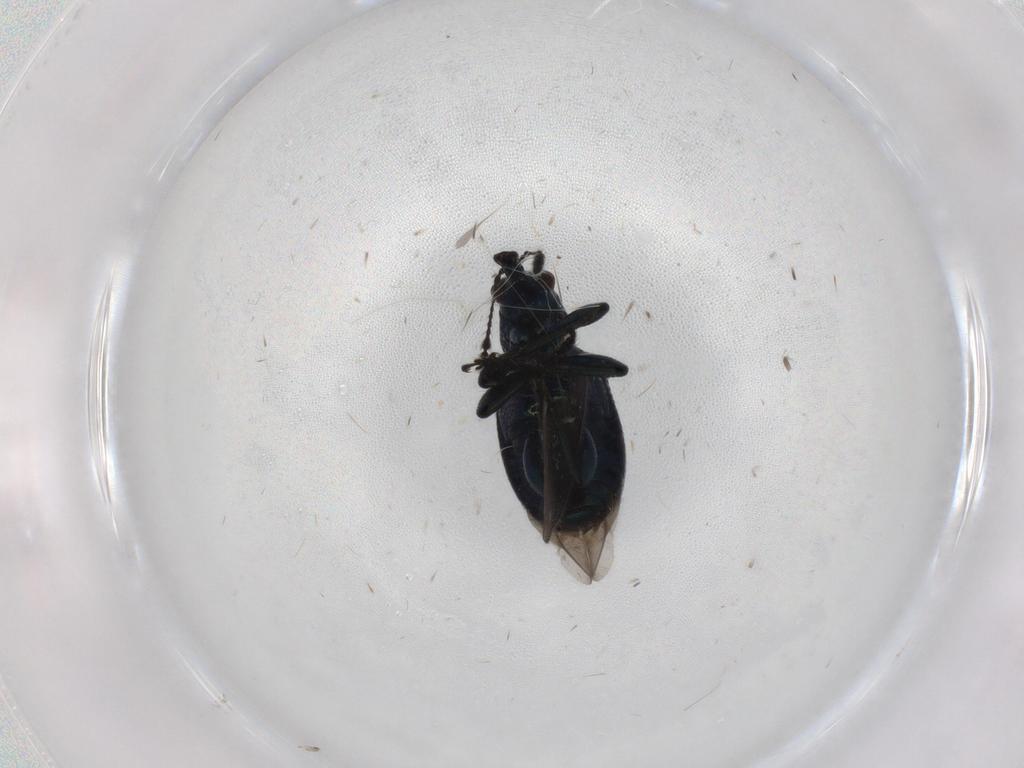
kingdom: Animalia
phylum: Arthropoda
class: Insecta
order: Coleoptera
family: Attelabidae
